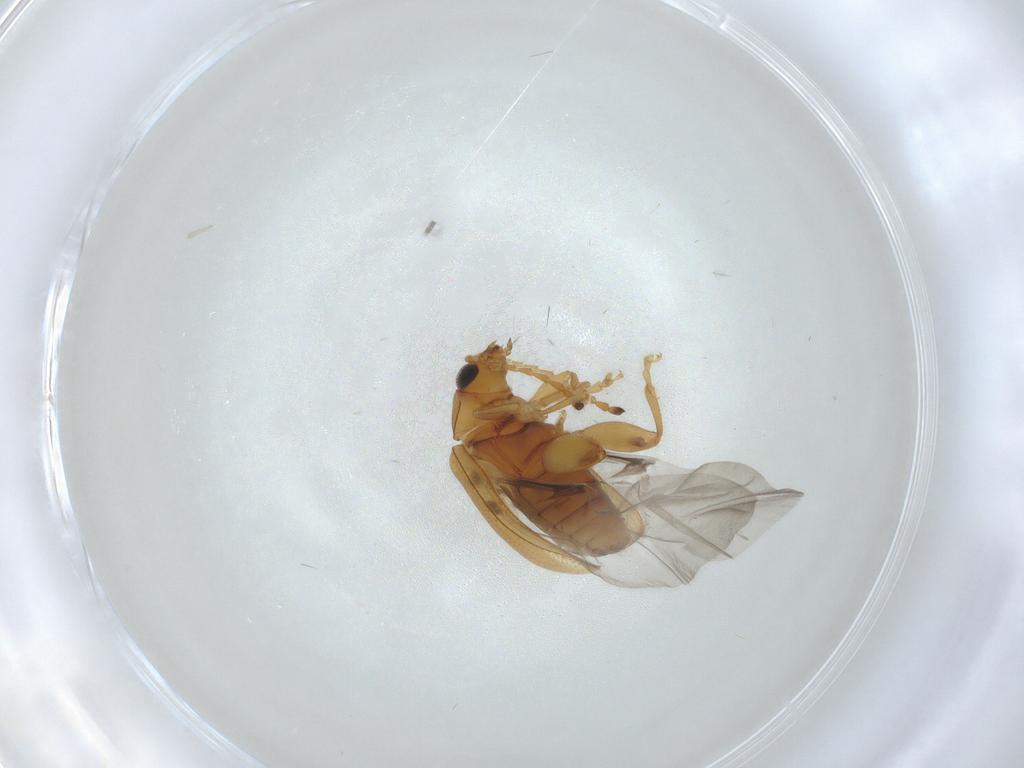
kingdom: Animalia
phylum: Arthropoda
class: Insecta
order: Coleoptera
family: Chrysomelidae
